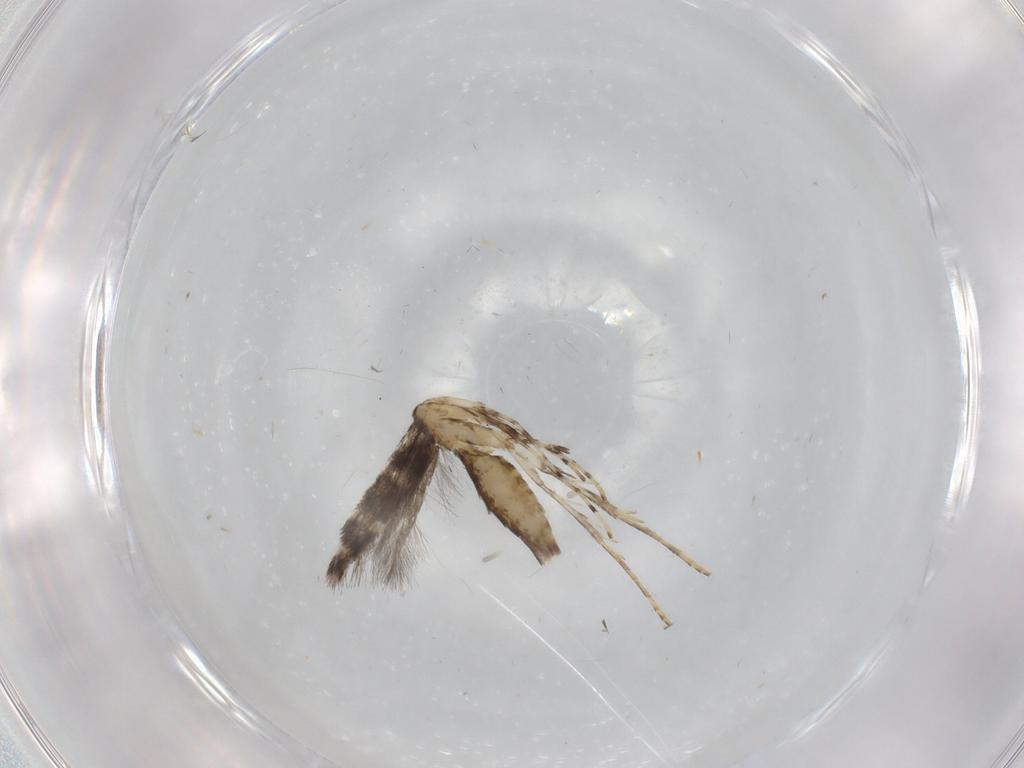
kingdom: Animalia
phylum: Arthropoda
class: Insecta
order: Lepidoptera
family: Gracillariidae
